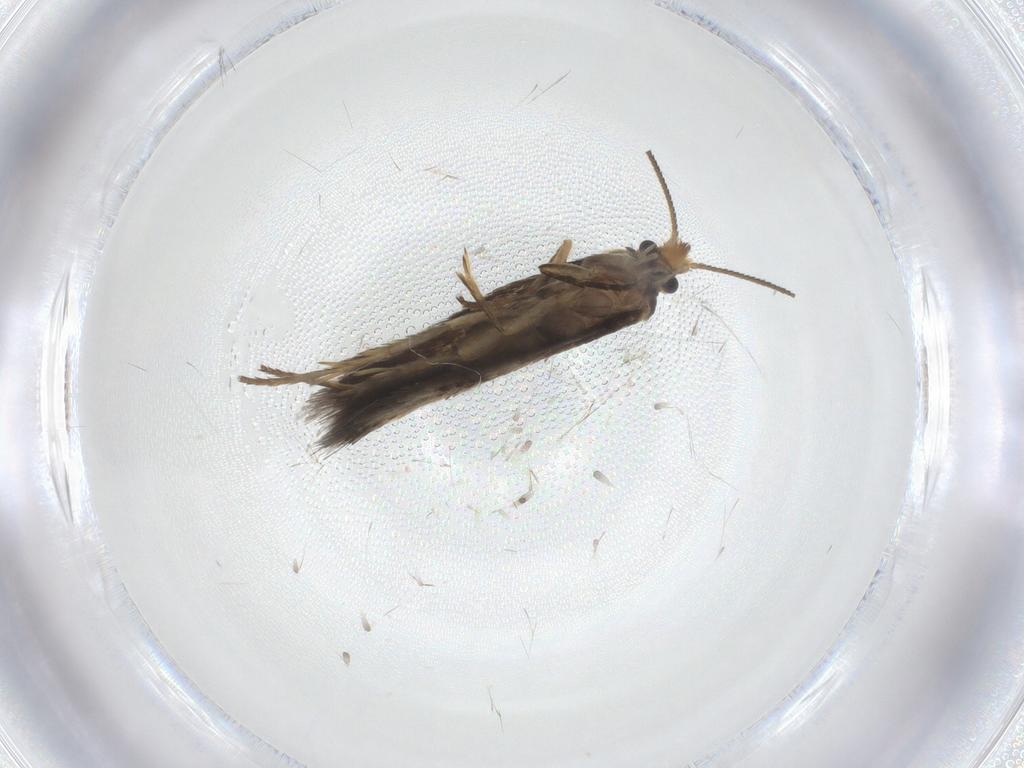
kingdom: Animalia
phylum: Arthropoda
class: Insecta
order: Lepidoptera
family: Nepticulidae
